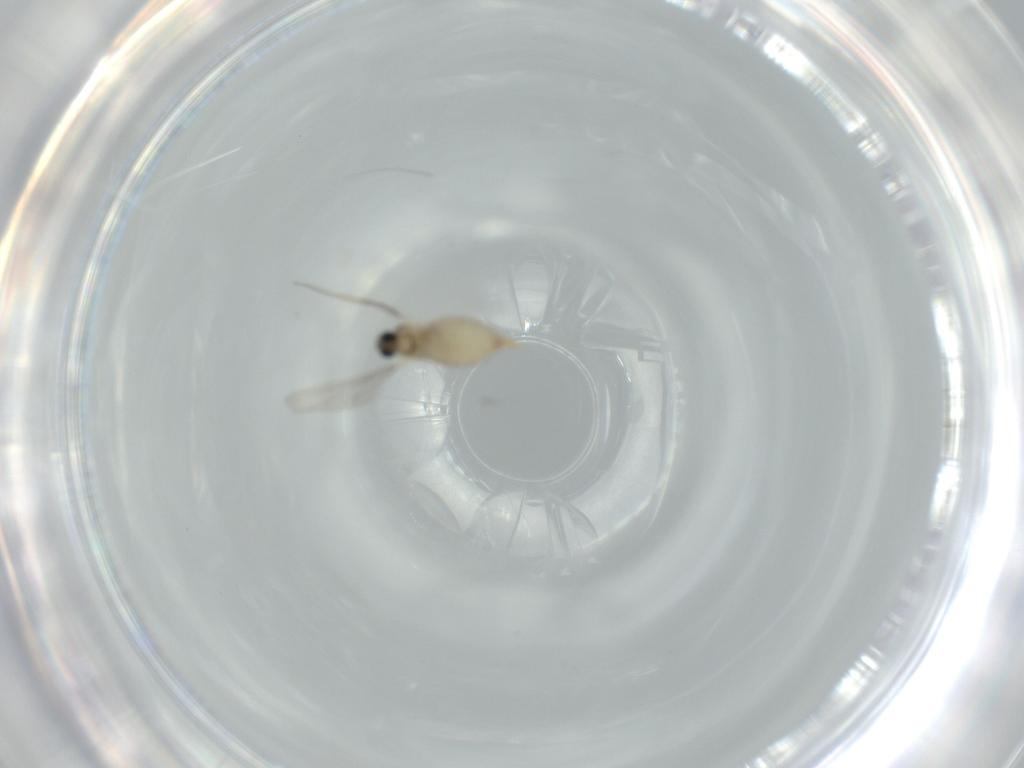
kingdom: Animalia
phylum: Arthropoda
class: Insecta
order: Diptera
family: Cecidomyiidae
